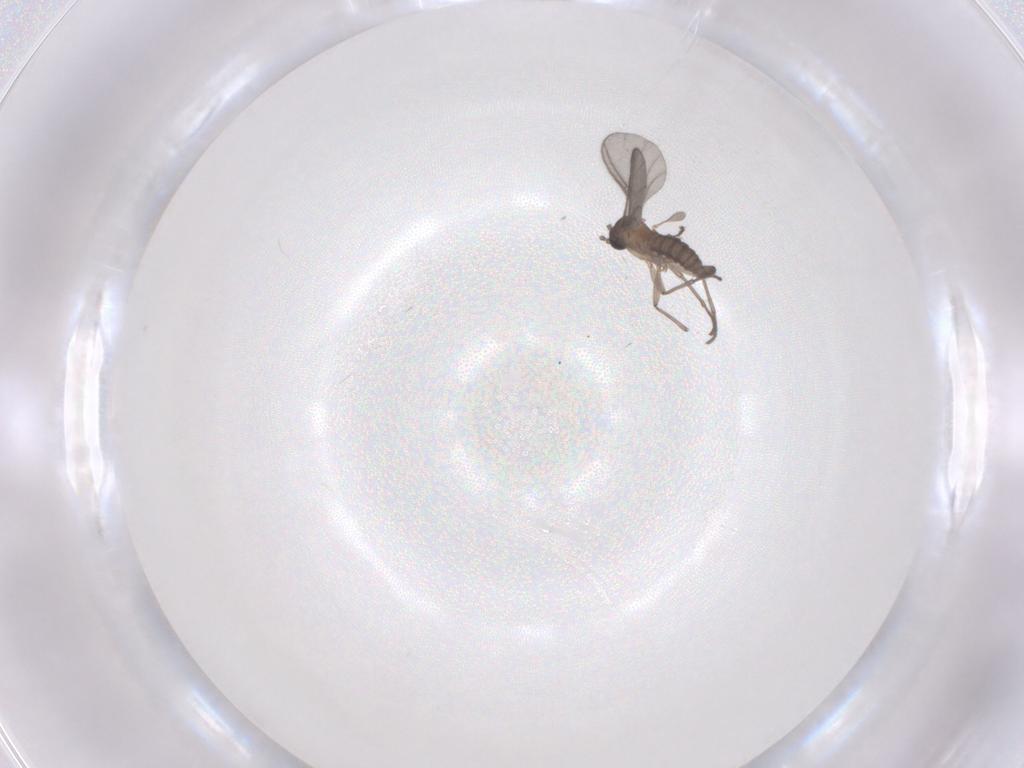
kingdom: Animalia
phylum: Arthropoda
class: Insecta
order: Diptera
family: Sciaridae
